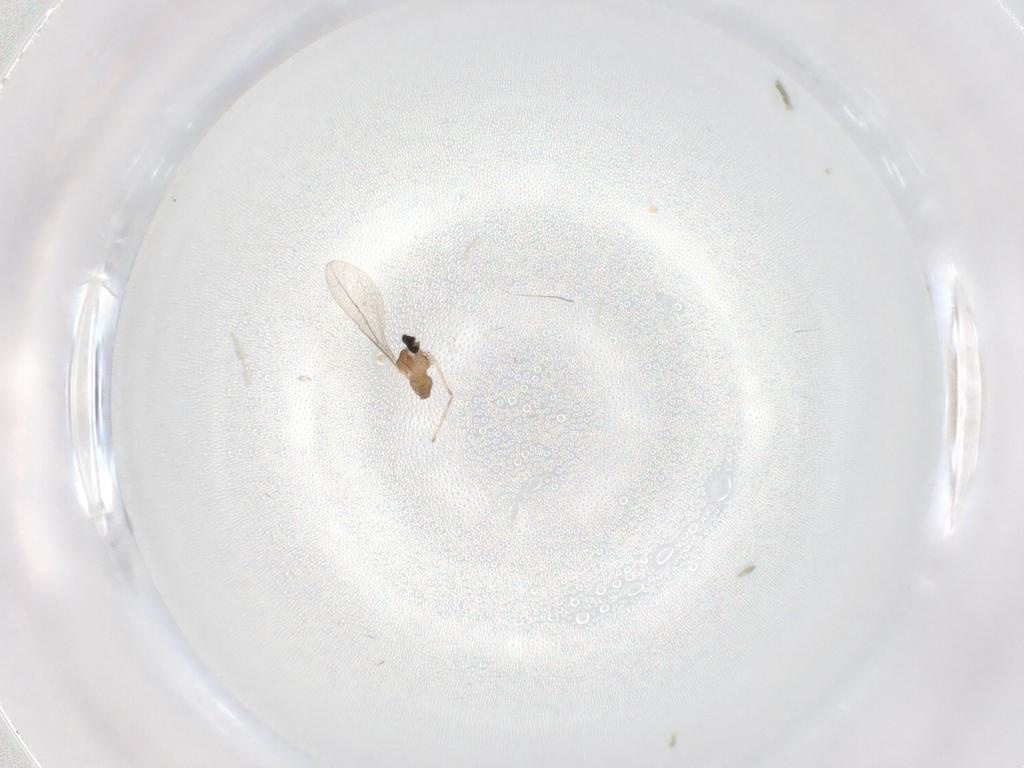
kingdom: Animalia
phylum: Arthropoda
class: Insecta
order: Diptera
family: Cecidomyiidae
